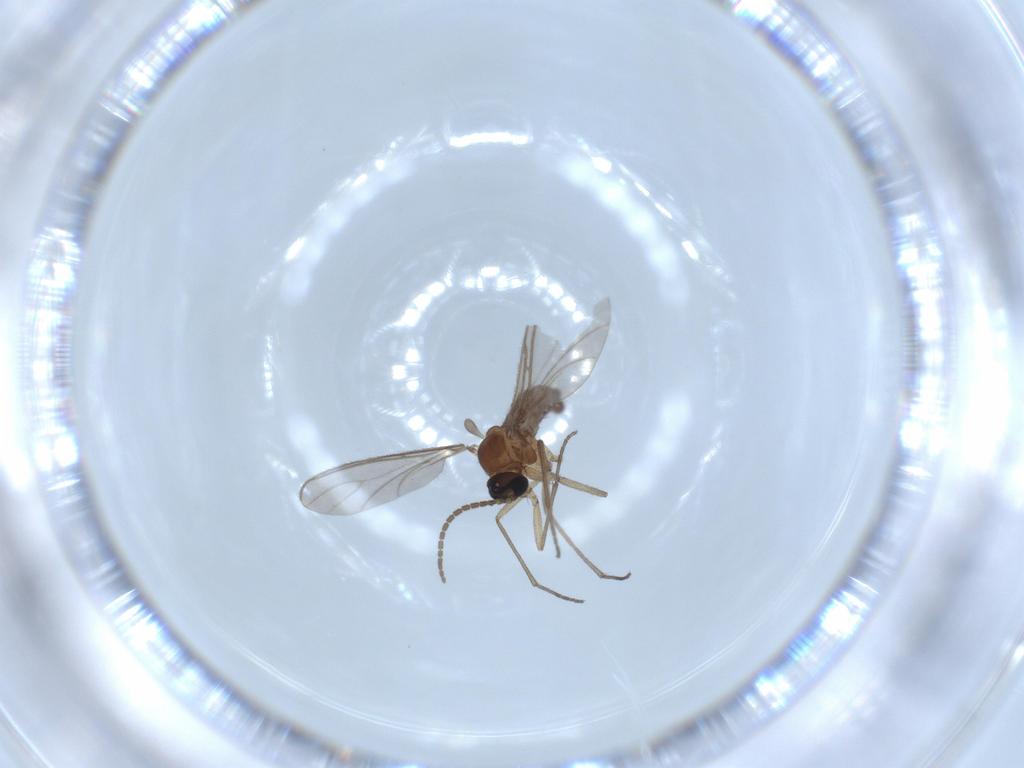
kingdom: Animalia
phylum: Arthropoda
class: Insecta
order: Diptera
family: Sciaridae
